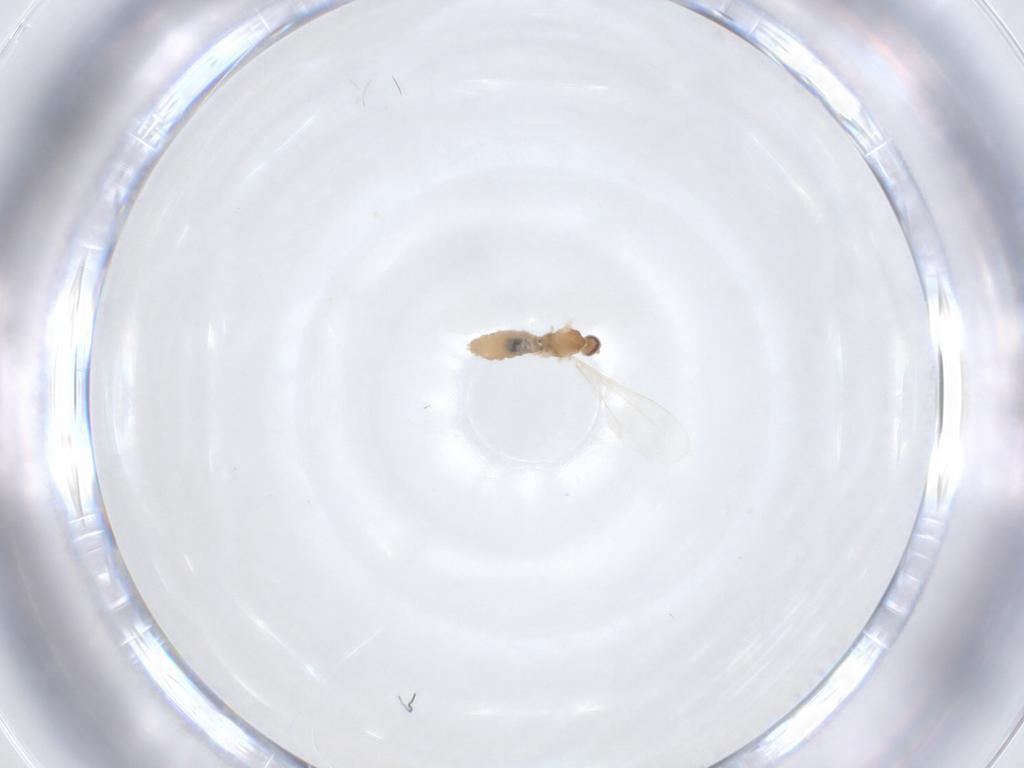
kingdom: Animalia
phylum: Arthropoda
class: Insecta
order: Diptera
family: Cecidomyiidae
